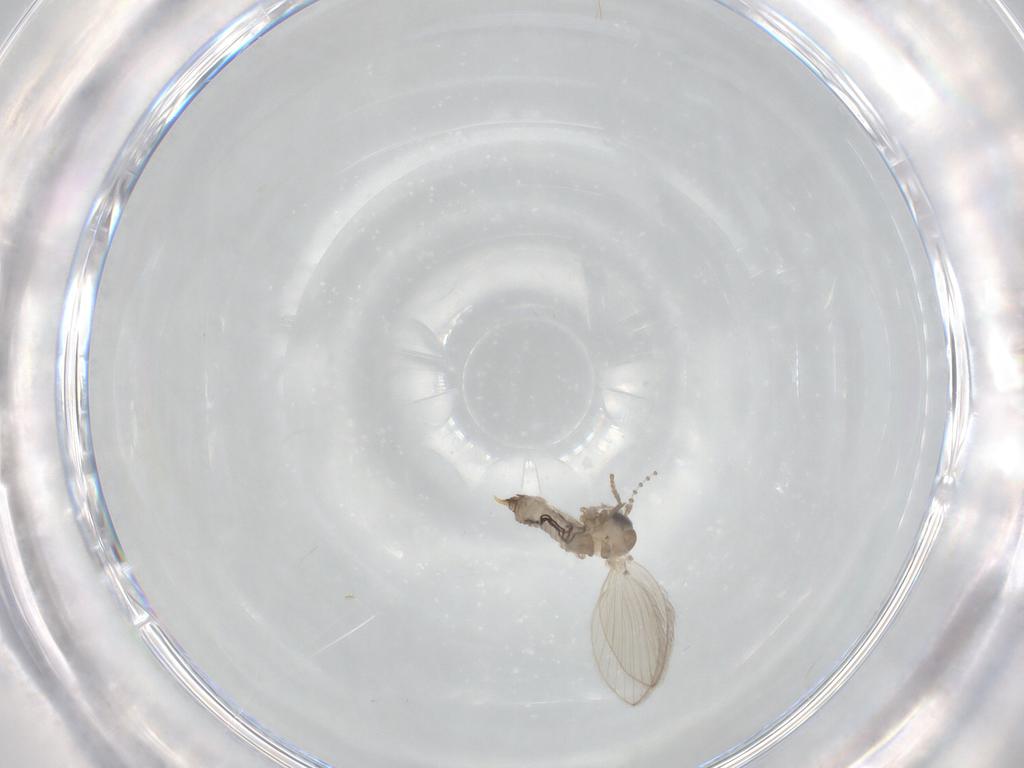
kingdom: Animalia
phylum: Arthropoda
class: Insecta
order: Diptera
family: Psychodidae
